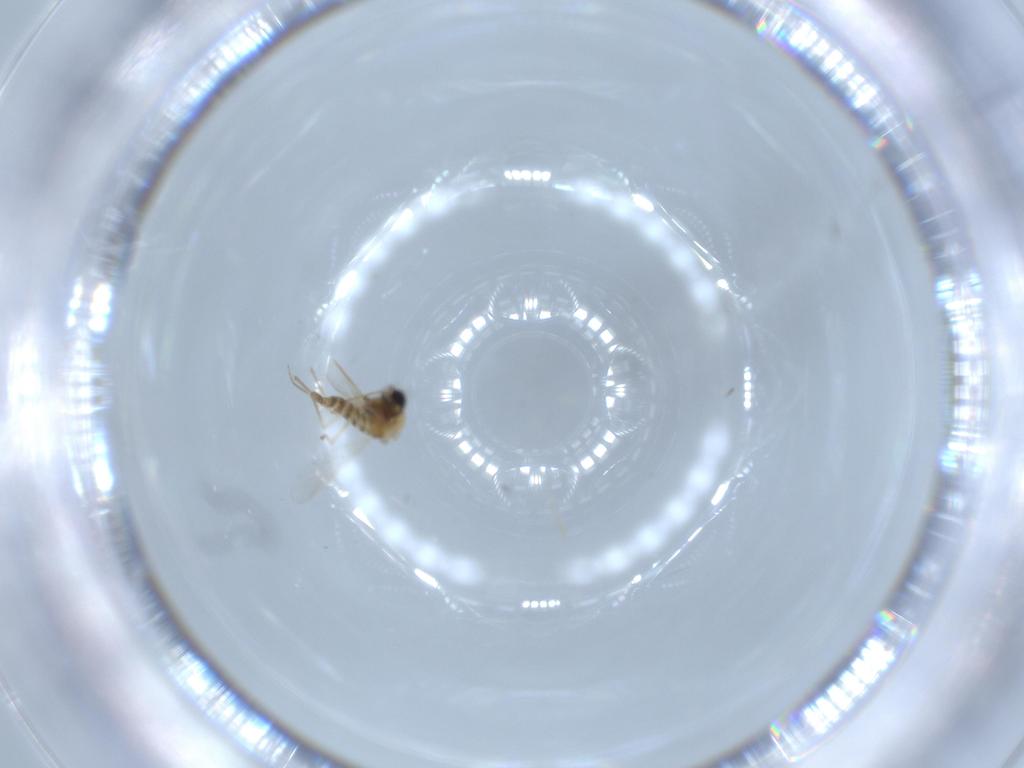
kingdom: Animalia
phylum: Arthropoda
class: Insecta
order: Diptera
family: Chironomidae
